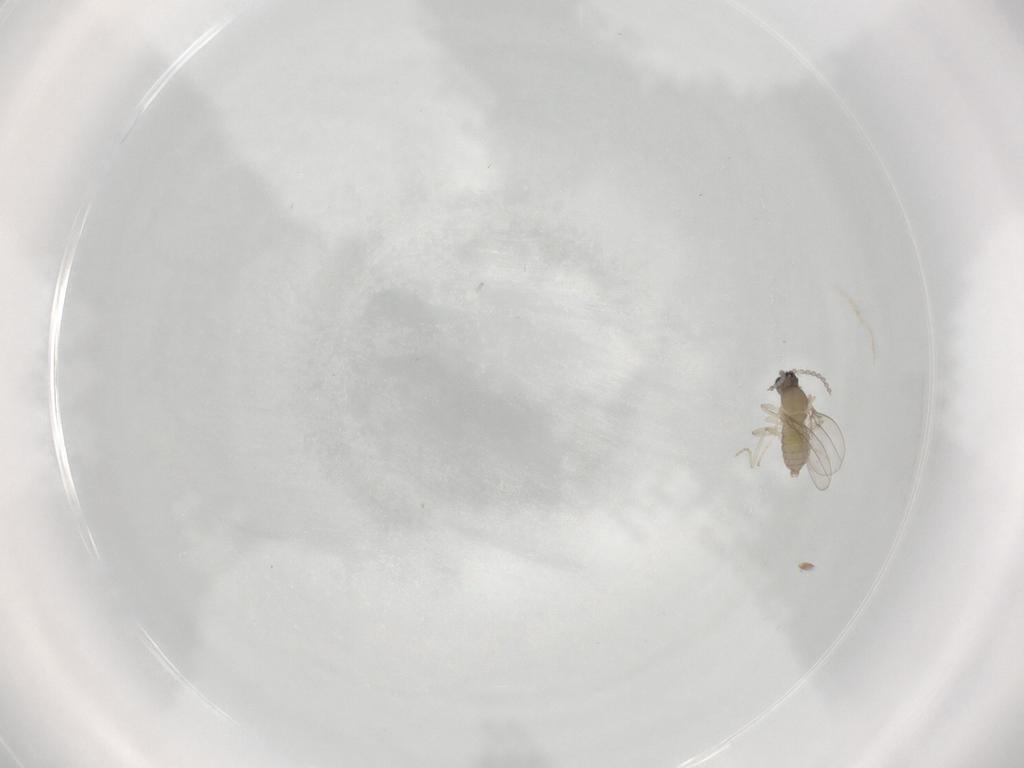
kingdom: Animalia
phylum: Arthropoda
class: Insecta
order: Diptera
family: Cecidomyiidae
